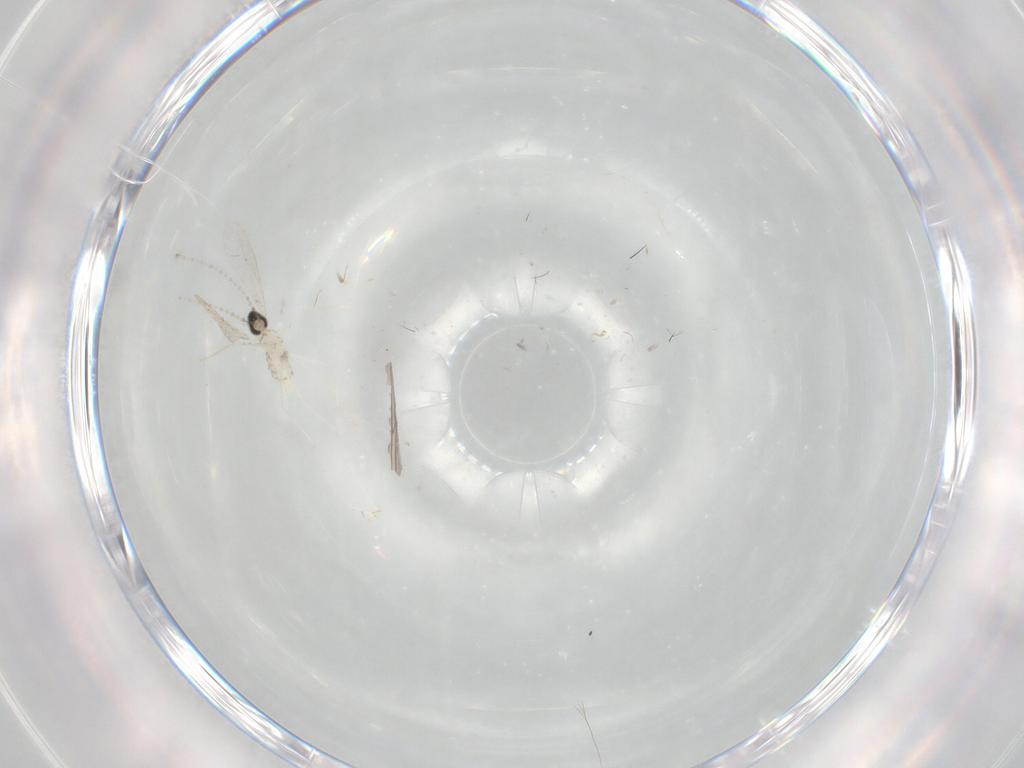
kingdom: Animalia
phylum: Arthropoda
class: Insecta
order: Diptera
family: Cecidomyiidae
